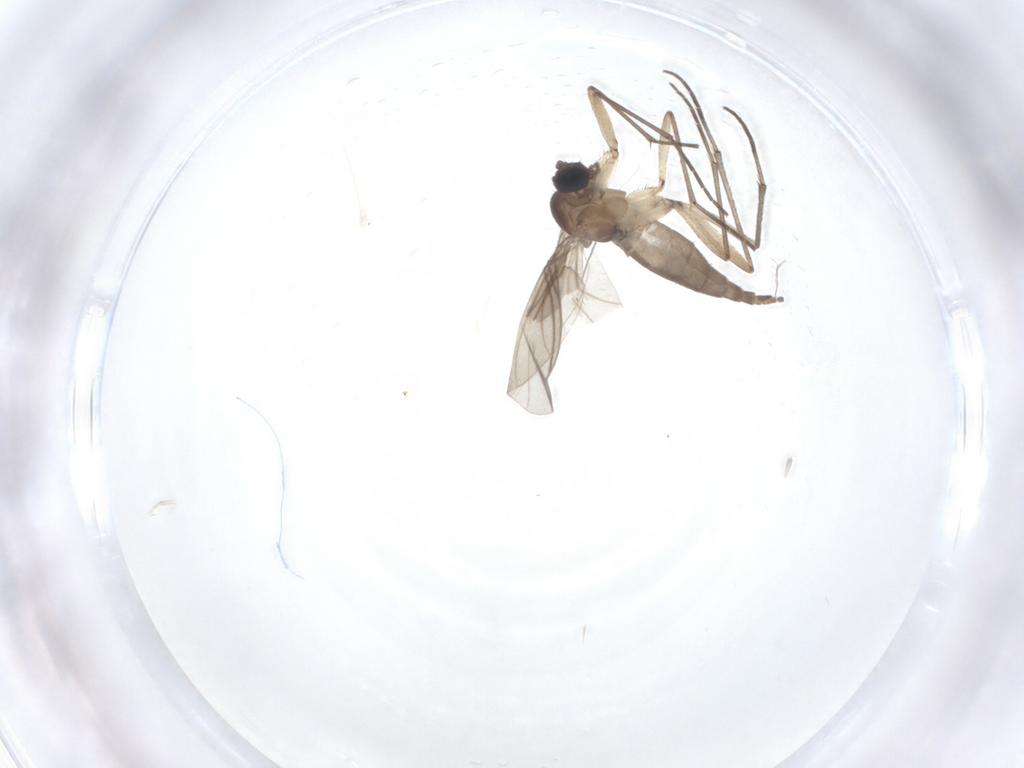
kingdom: Animalia
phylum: Arthropoda
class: Insecta
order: Diptera
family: Sciaridae
